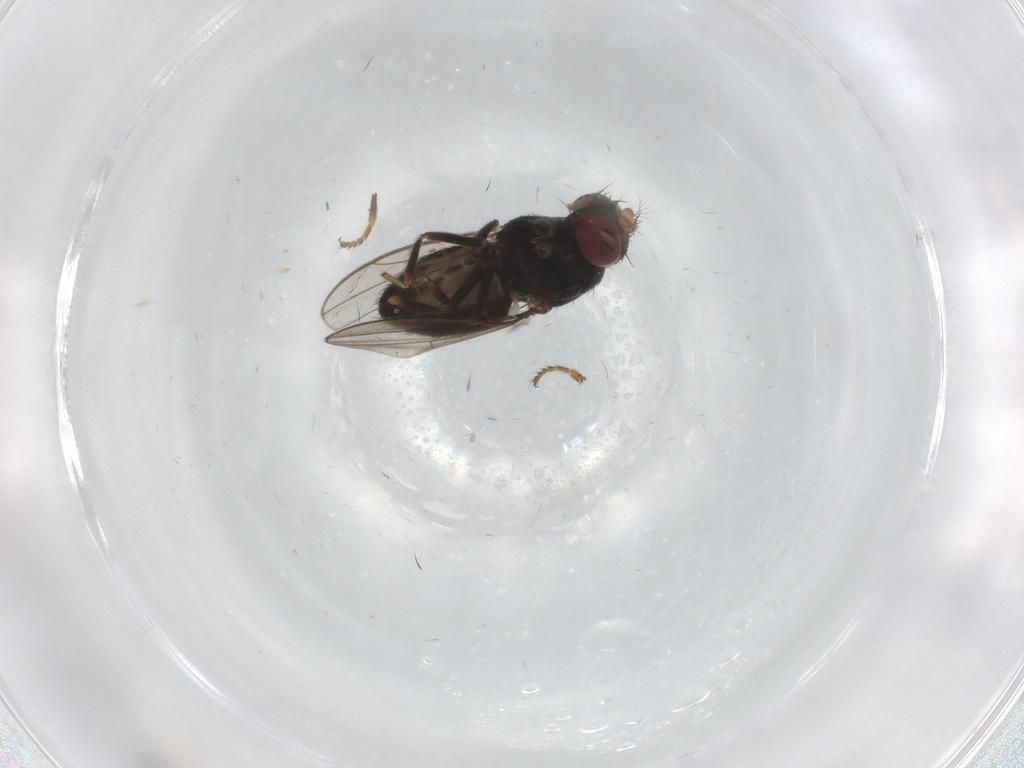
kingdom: Animalia
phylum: Arthropoda
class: Insecta
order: Diptera
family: Ephydridae
